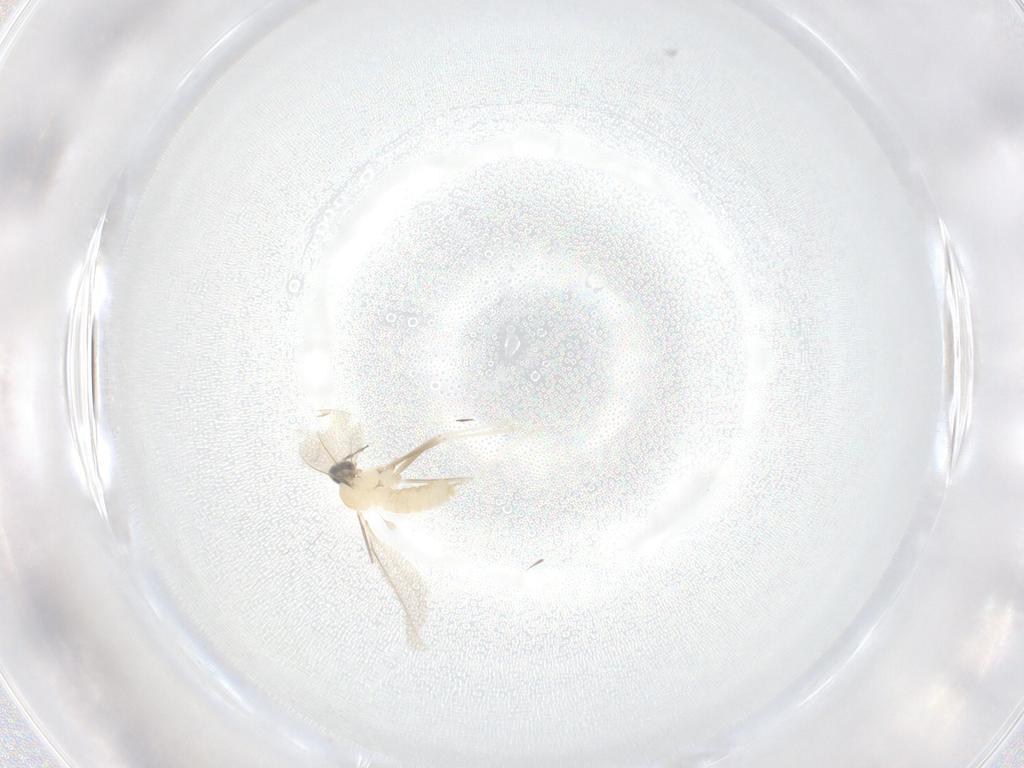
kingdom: Animalia
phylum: Arthropoda
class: Insecta
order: Diptera
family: Cecidomyiidae
